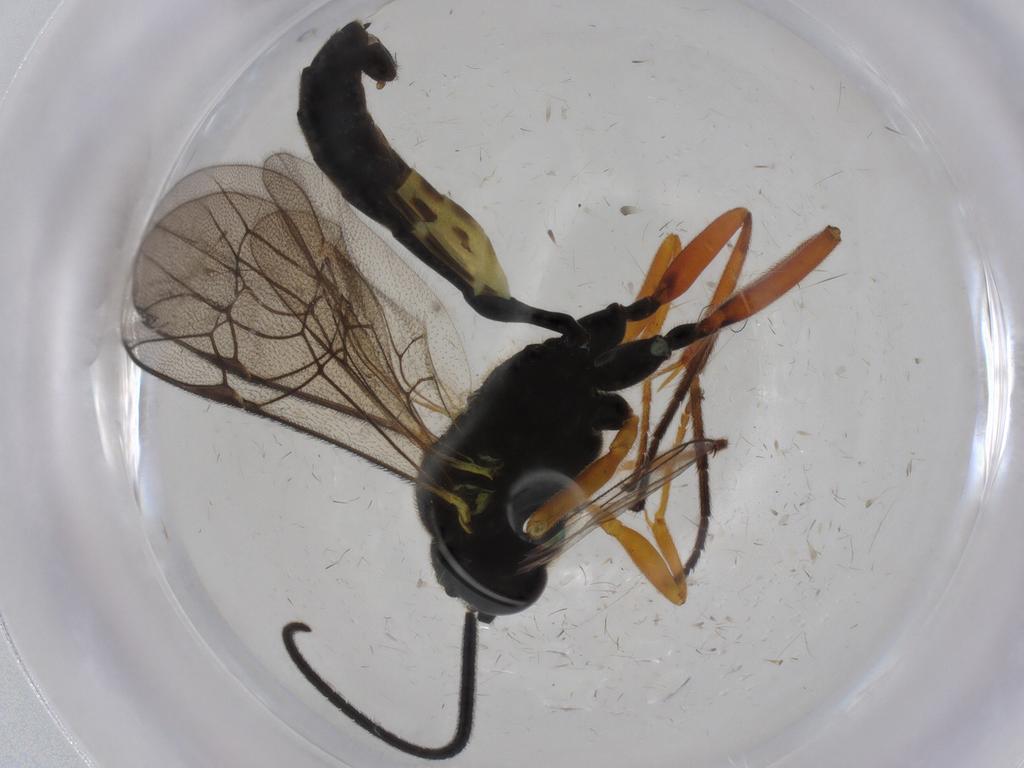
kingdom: Animalia
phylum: Arthropoda
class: Insecta
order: Hymenoptera
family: Ichneumonidae
